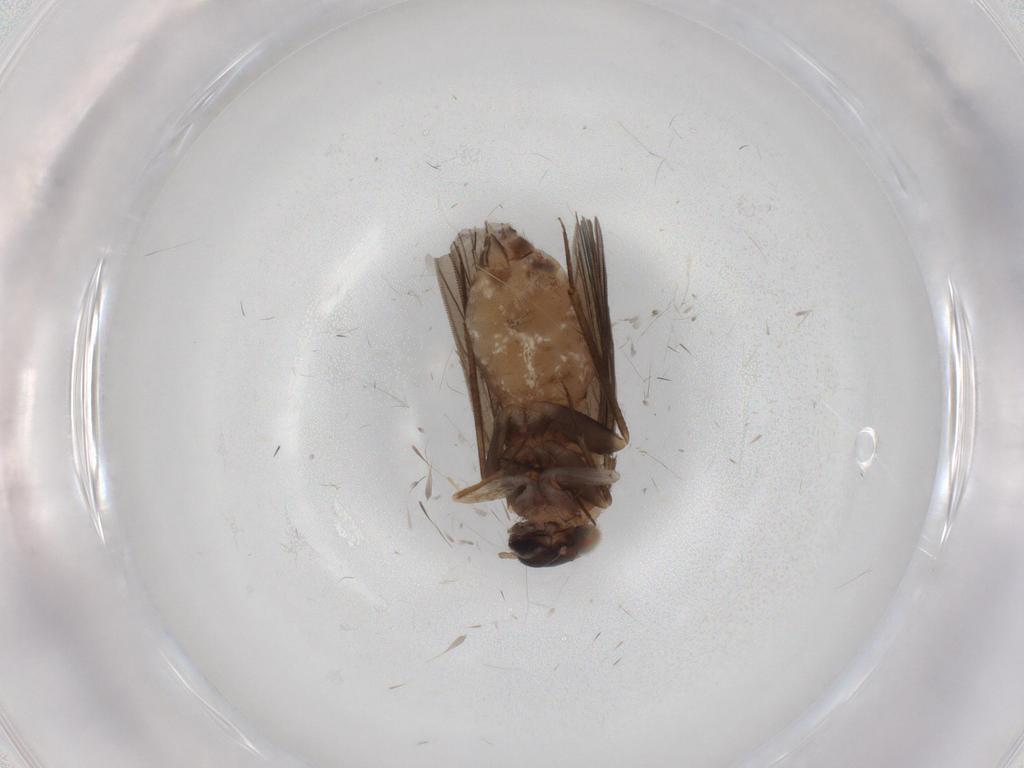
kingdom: Animalia
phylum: Arthropoda
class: Insecta
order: Psocodea
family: Lepidopsocidae
